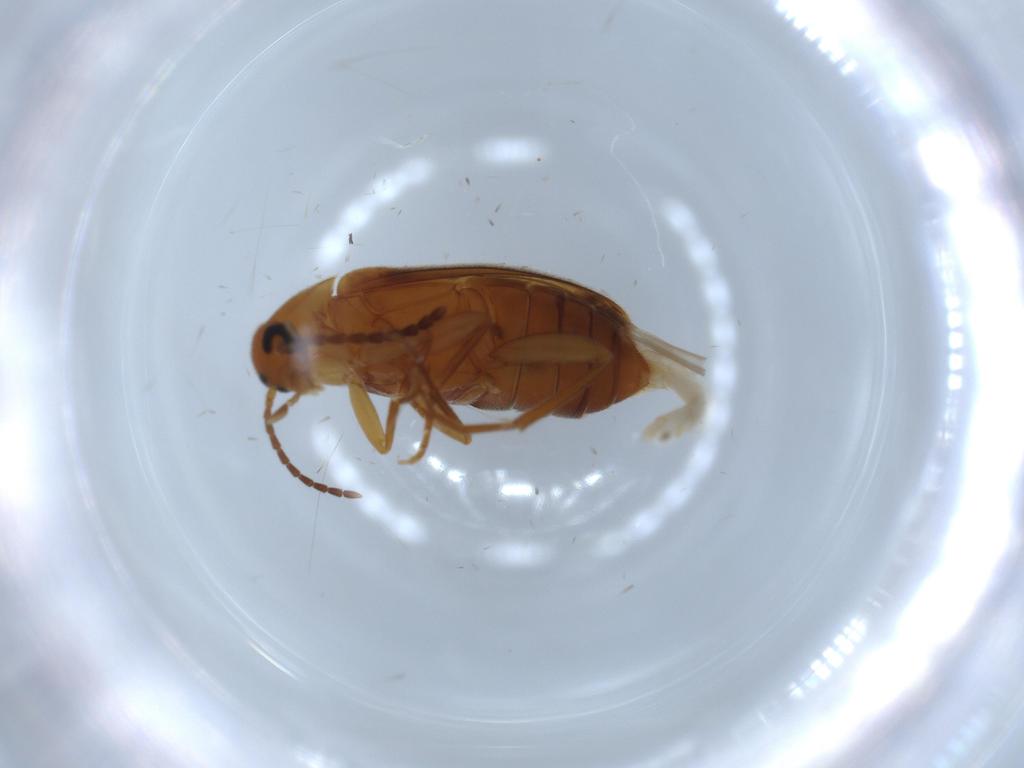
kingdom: Animalia
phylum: Arthropoda
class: Insecta
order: Coleoptera
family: Scraptiidae
